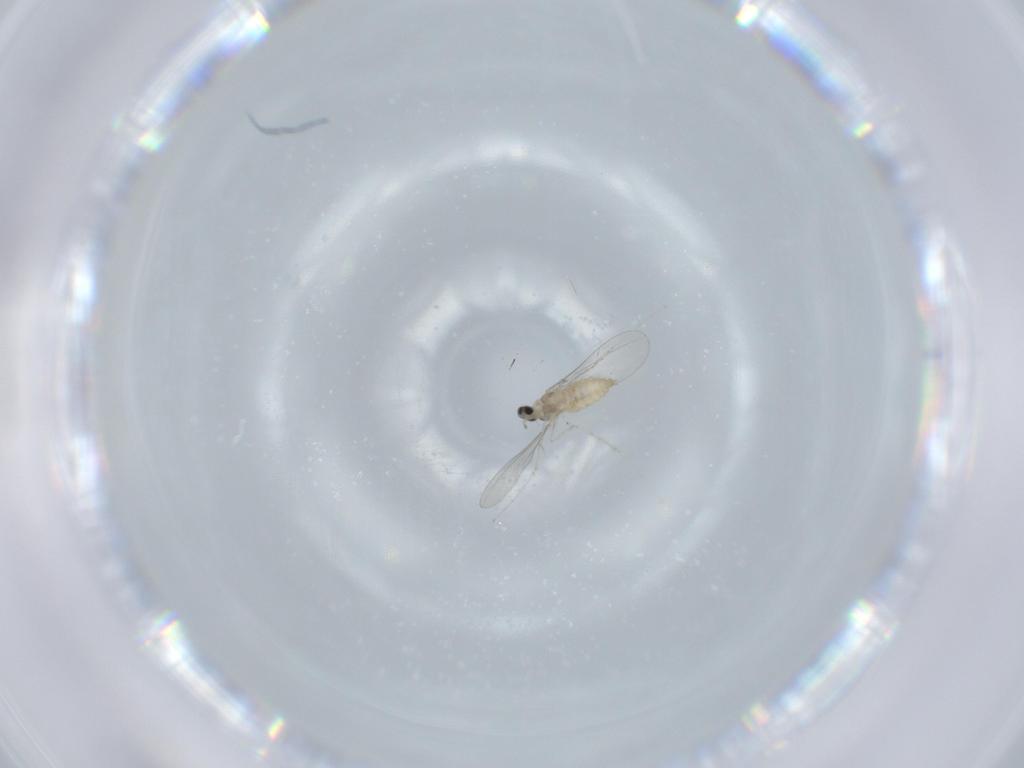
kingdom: Animalia
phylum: Arthropoda
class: Insecta
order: Diptera
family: Cecidomyiidae
